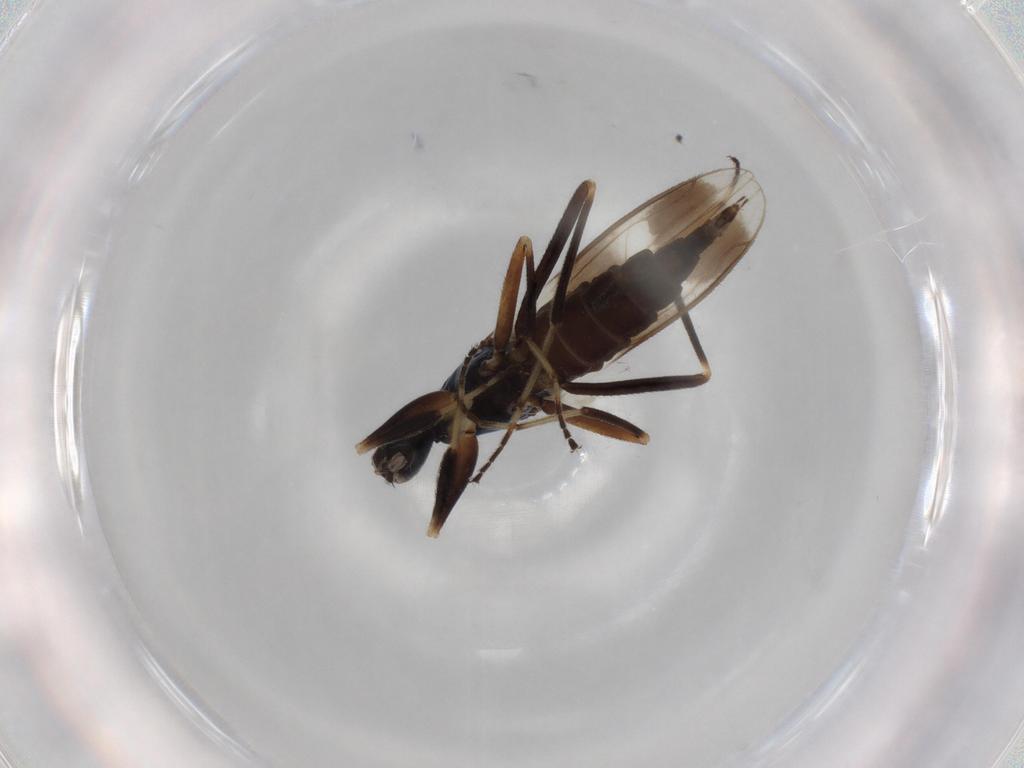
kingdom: Animalia
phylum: Arthropoda
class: Insecta
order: Diptera
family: Hybotidae
